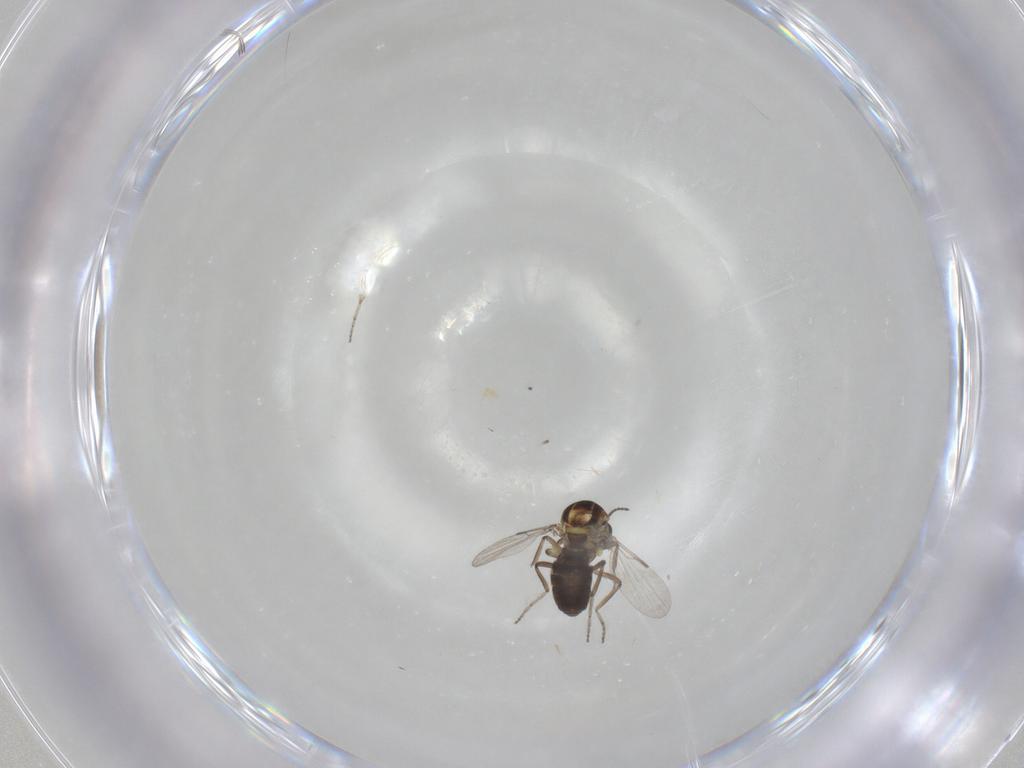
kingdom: Animalia
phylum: Arthropoda
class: Insecta
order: Diptera
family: Ceratopogonidae
